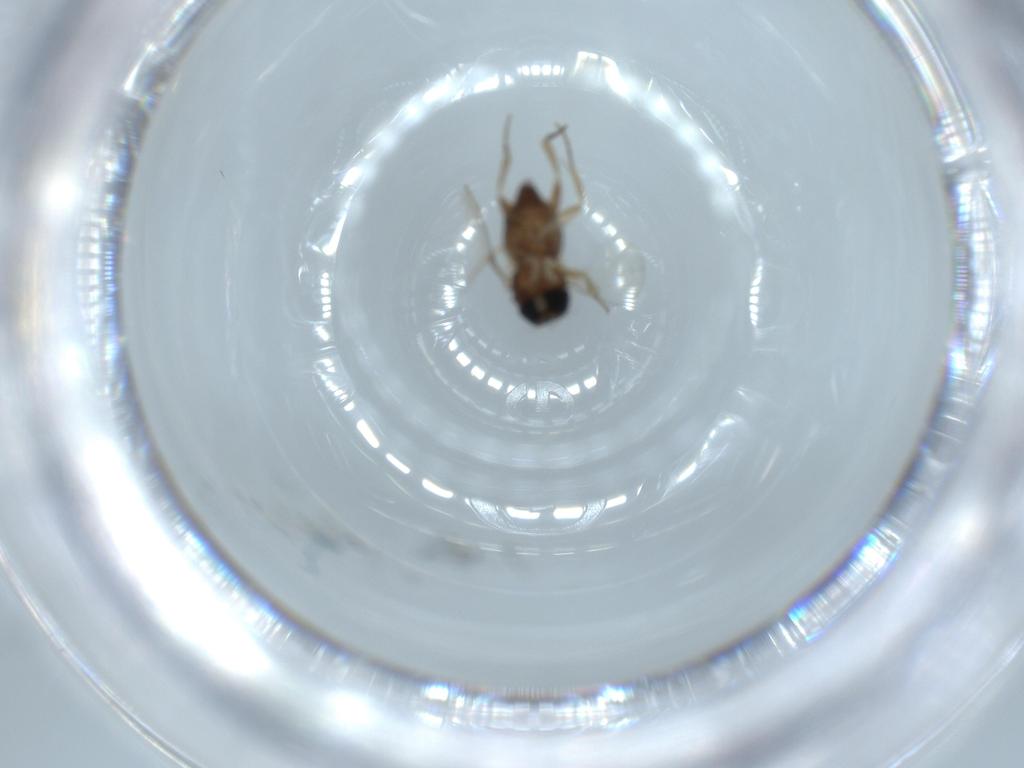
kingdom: Animalia
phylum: Arthropoda
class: Insecta
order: Diptera
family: Phoridae
